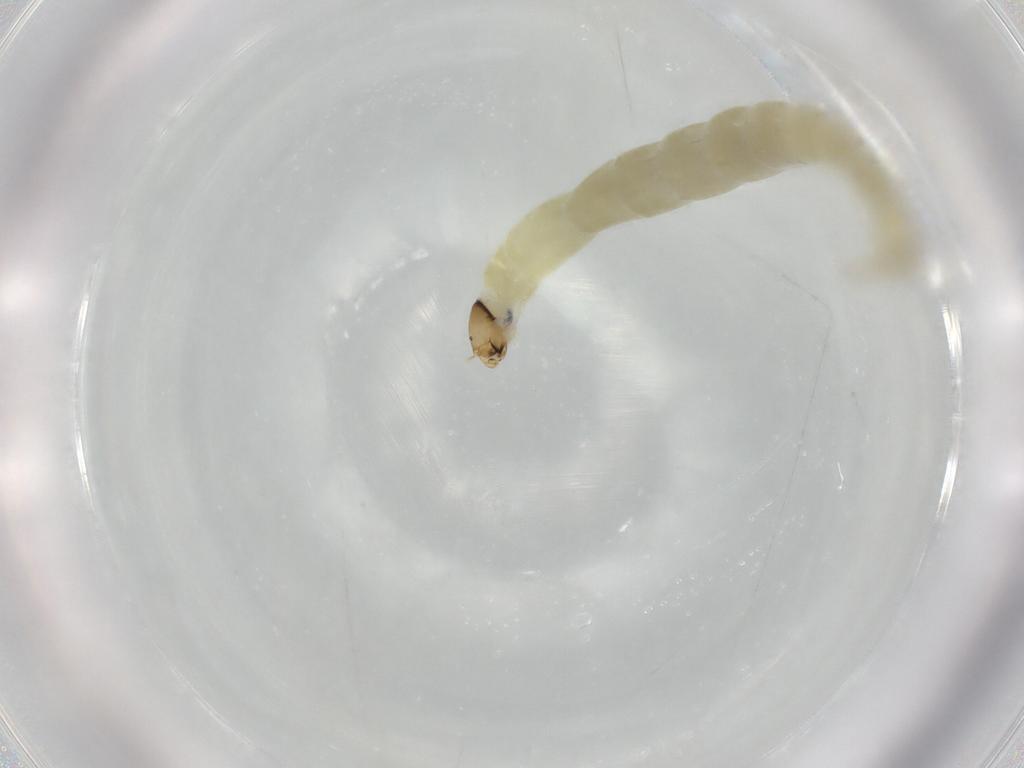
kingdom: Animalia
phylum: Arthropoda
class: Insecta
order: Diptera
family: Chironomidae
